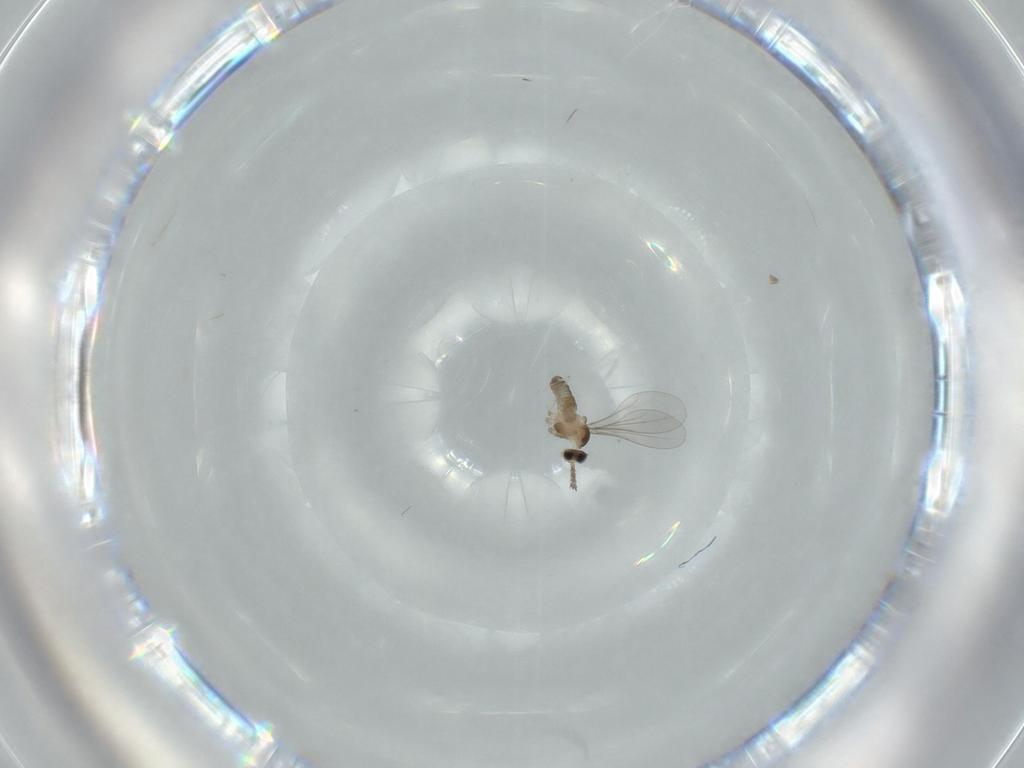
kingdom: Animalia
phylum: Arthropoda
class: Insecta
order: Diptera
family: Cecidomyiidae
